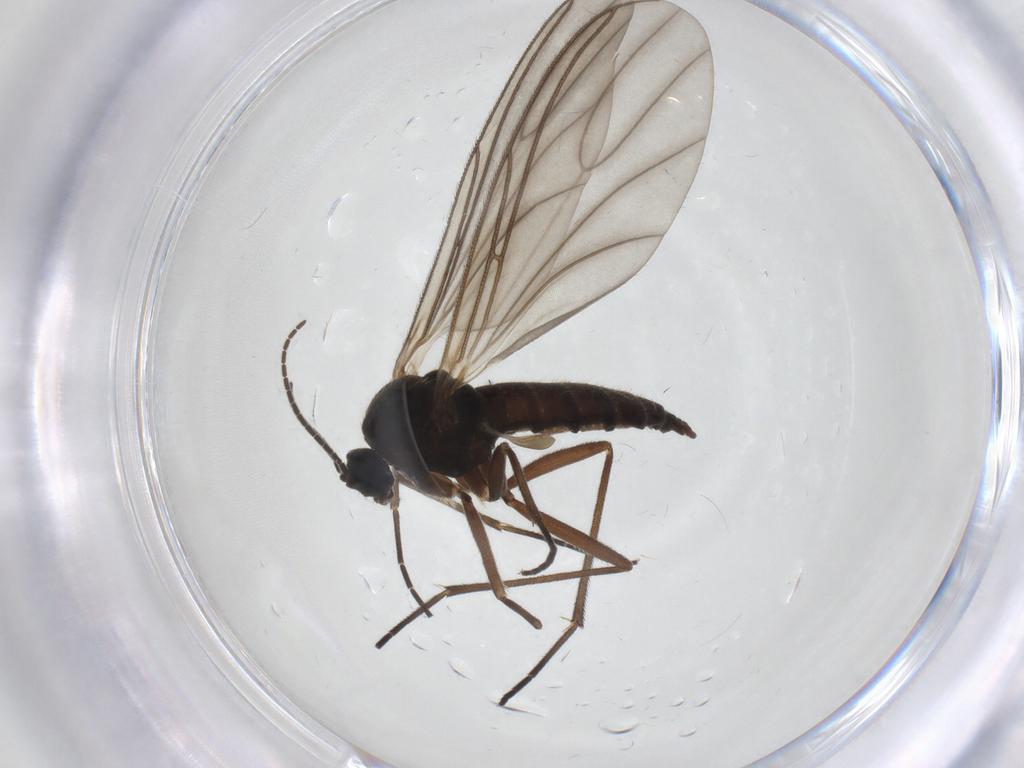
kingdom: Animalia
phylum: Arthropoda
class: Insecta
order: Diptera
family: Sciaridae
